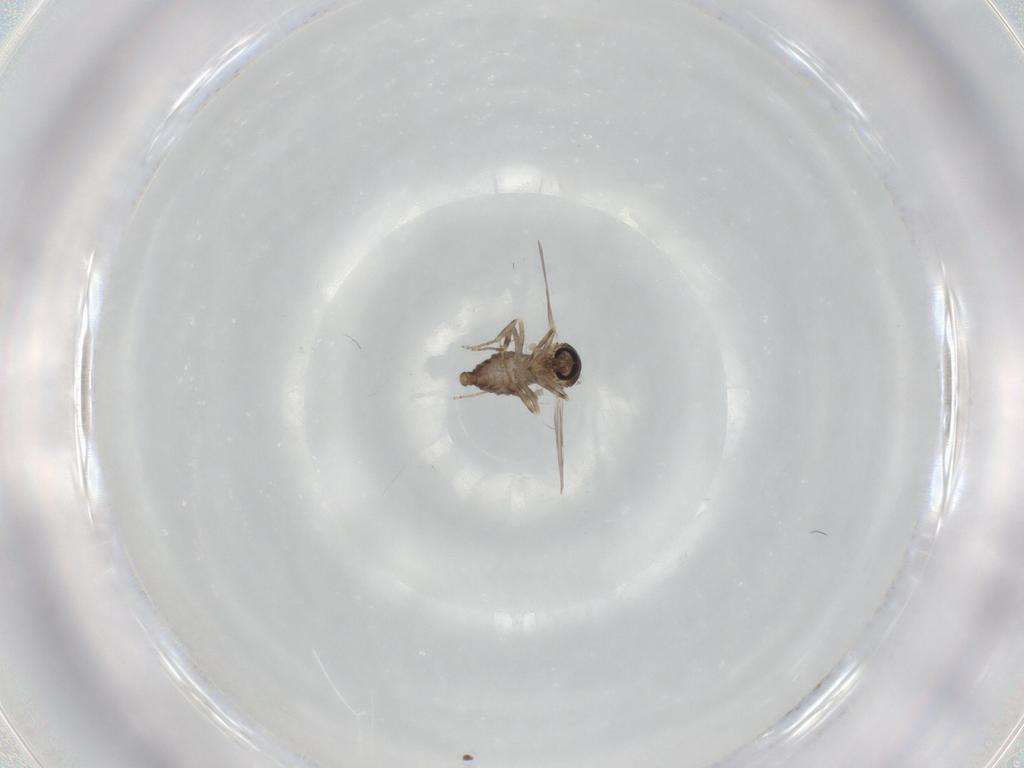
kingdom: Animalia
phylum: Arthropoda
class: Insecta
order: Diptera
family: Ceratopogonidae
